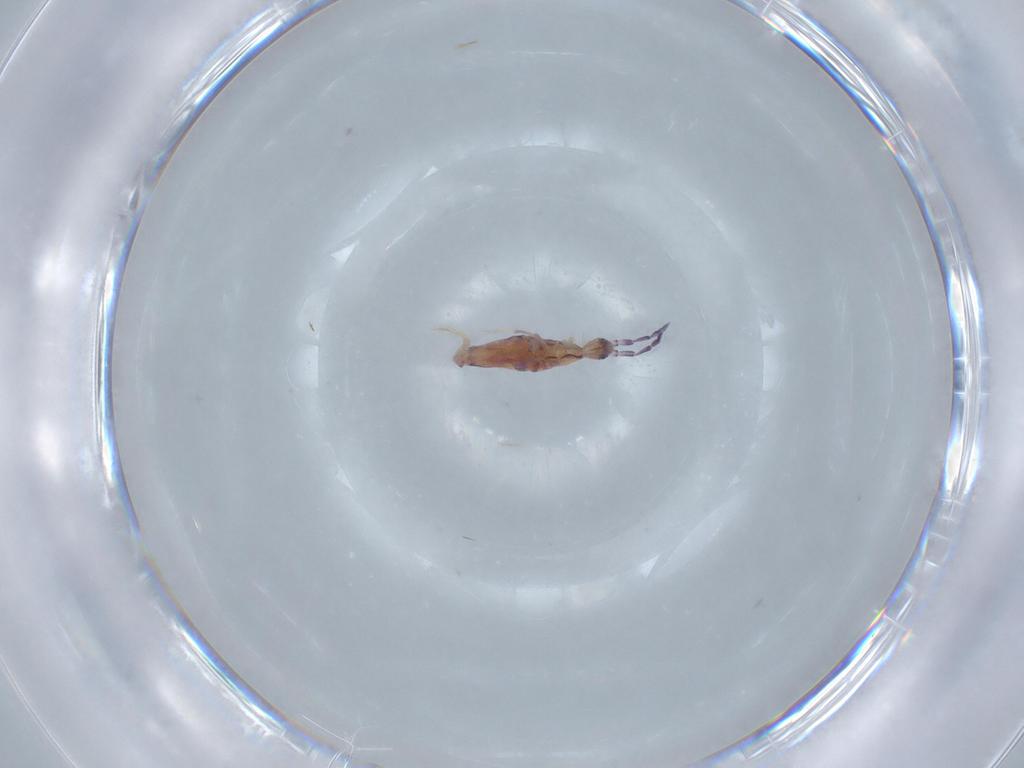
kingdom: Animalia
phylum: Arthropoda
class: Collembola
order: Poduromorpha
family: Hypogastruridae
